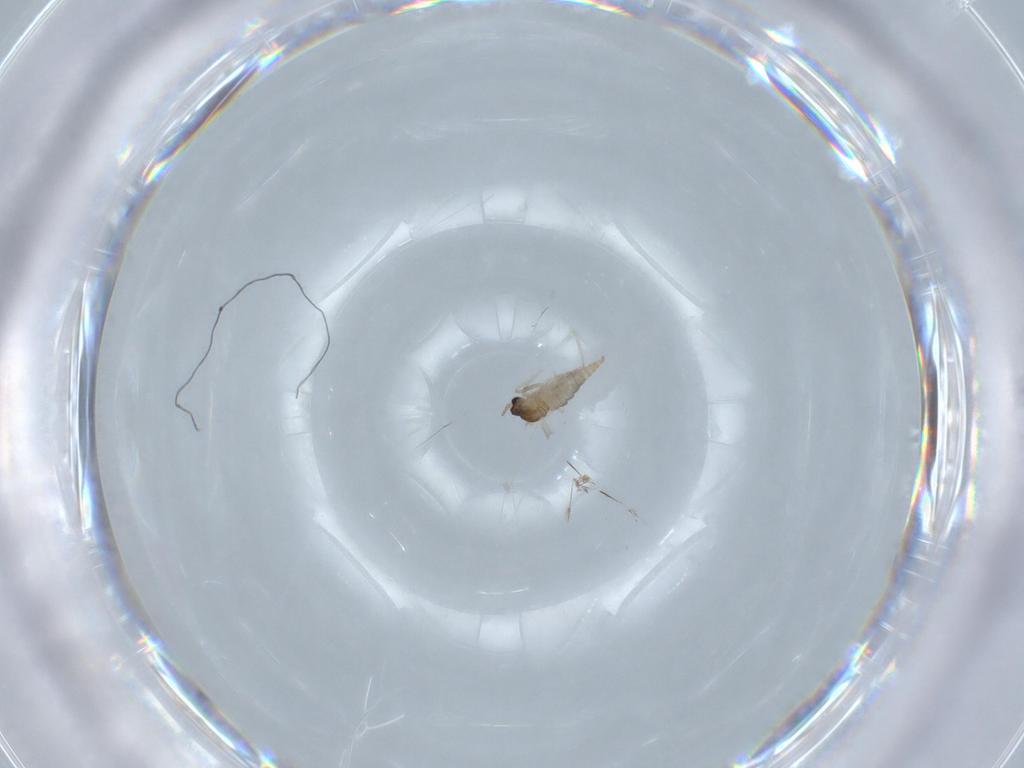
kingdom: Animalia
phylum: Arthropoda
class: Insecta
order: Diptera
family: Cecidomyiidae
